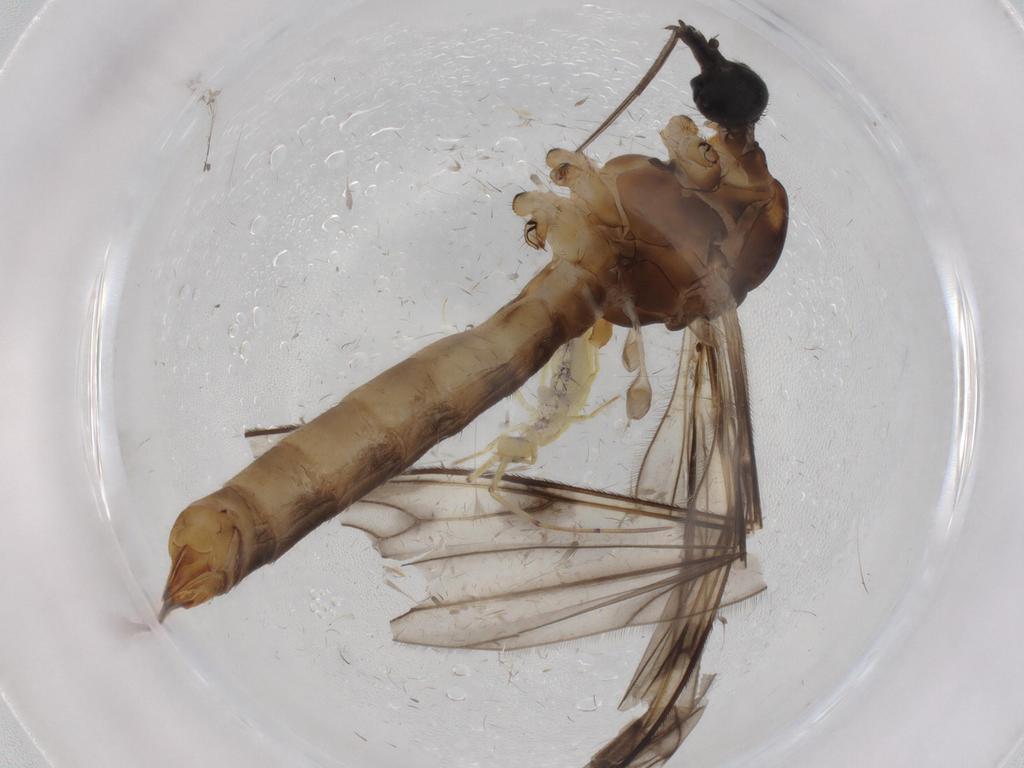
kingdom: Animalia
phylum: Arthropoda
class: Insecta
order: Diptera
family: Limoniidae
